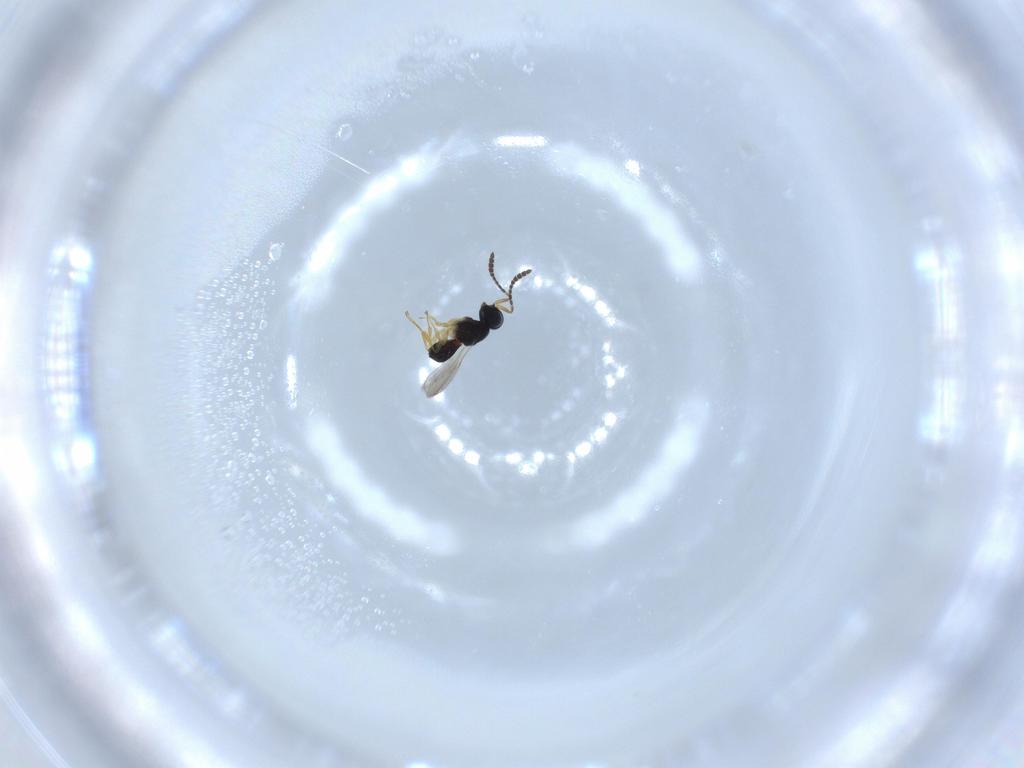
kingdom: Animalia
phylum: Arthropoda
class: Insecta
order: Hymenoptera
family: Scelionidae
